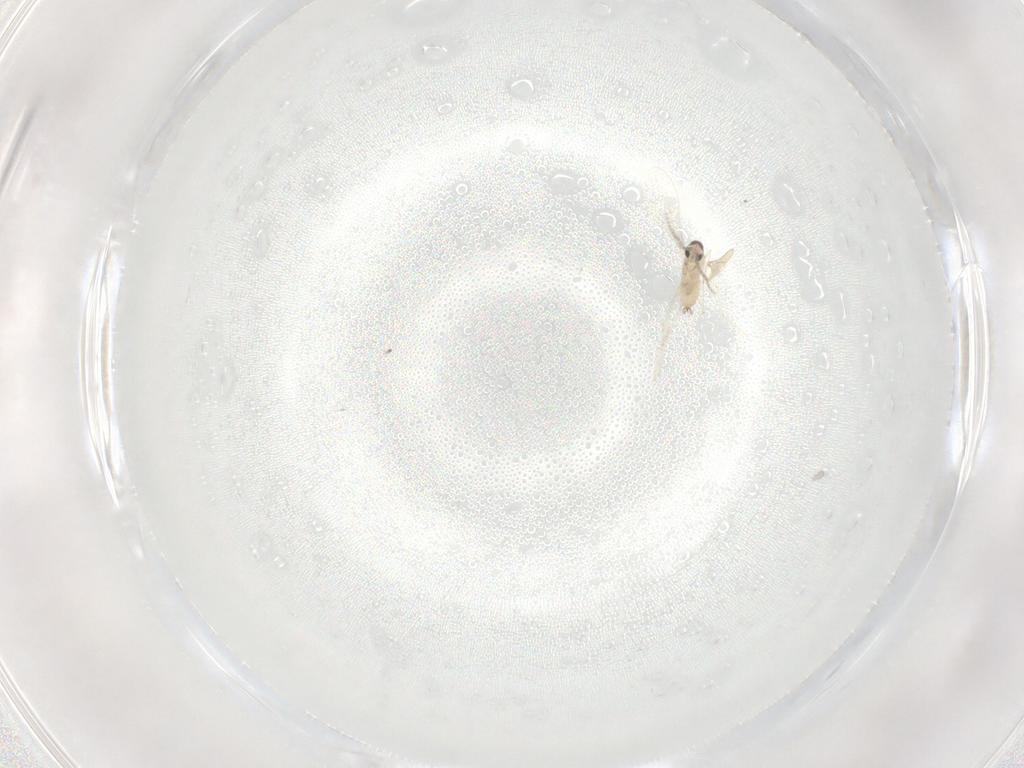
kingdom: Animalia
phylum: Arthropoda
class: Insecta
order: Diptera
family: Cecidomyiidae
